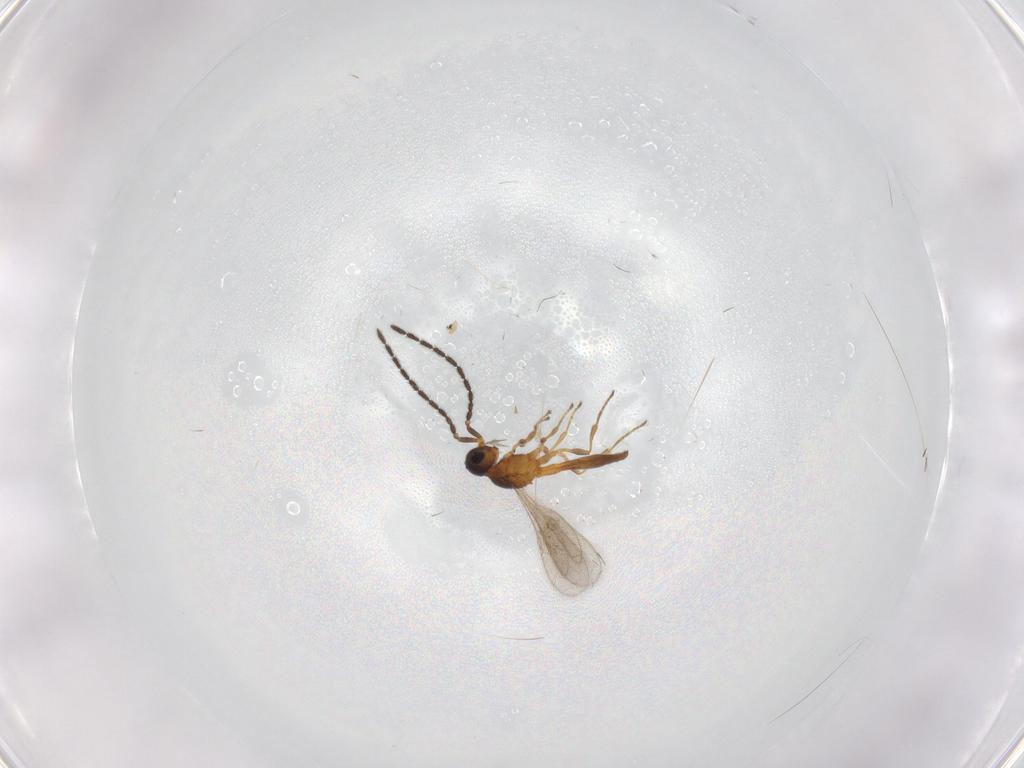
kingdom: Animalia
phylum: Arthropoda
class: Insecta
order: Hymenoptera
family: Scelionidae
